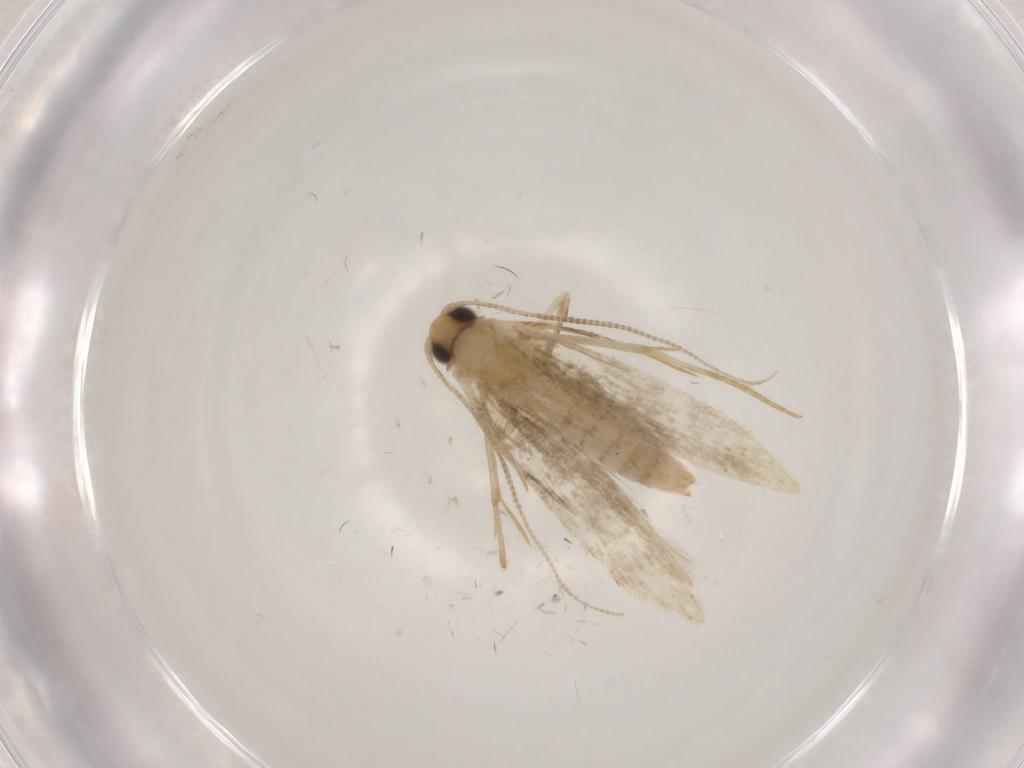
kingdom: Animalia
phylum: Arthropoda
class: Insecta
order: Lepidoptera
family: Tineidae
